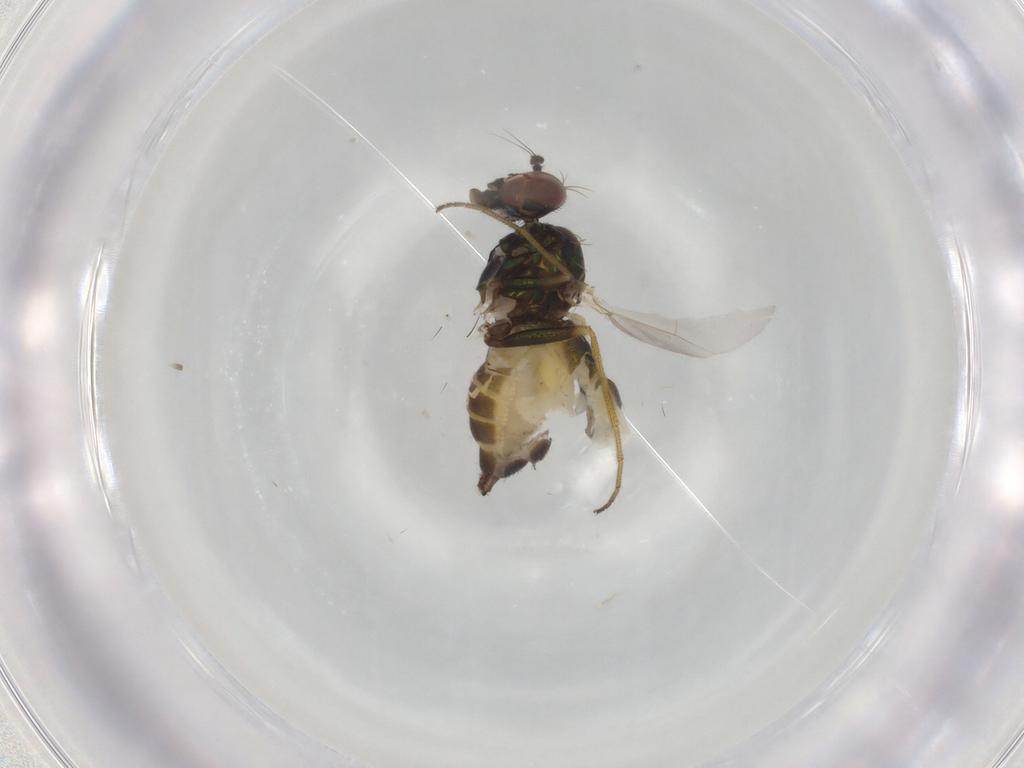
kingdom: Animalia
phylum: Arthropoda
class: Insecta
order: Diptera
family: Dolichopodidae
